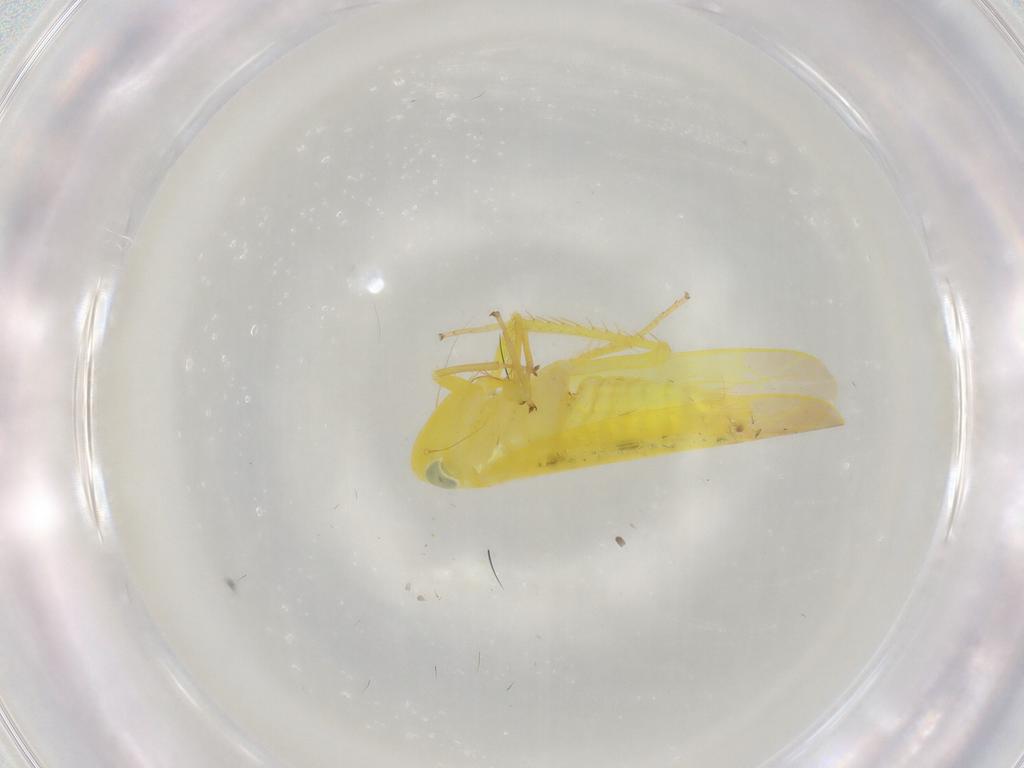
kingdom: Animalia
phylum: Arthropoda
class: Insecta
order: Hemiptera
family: Cicadellidae
